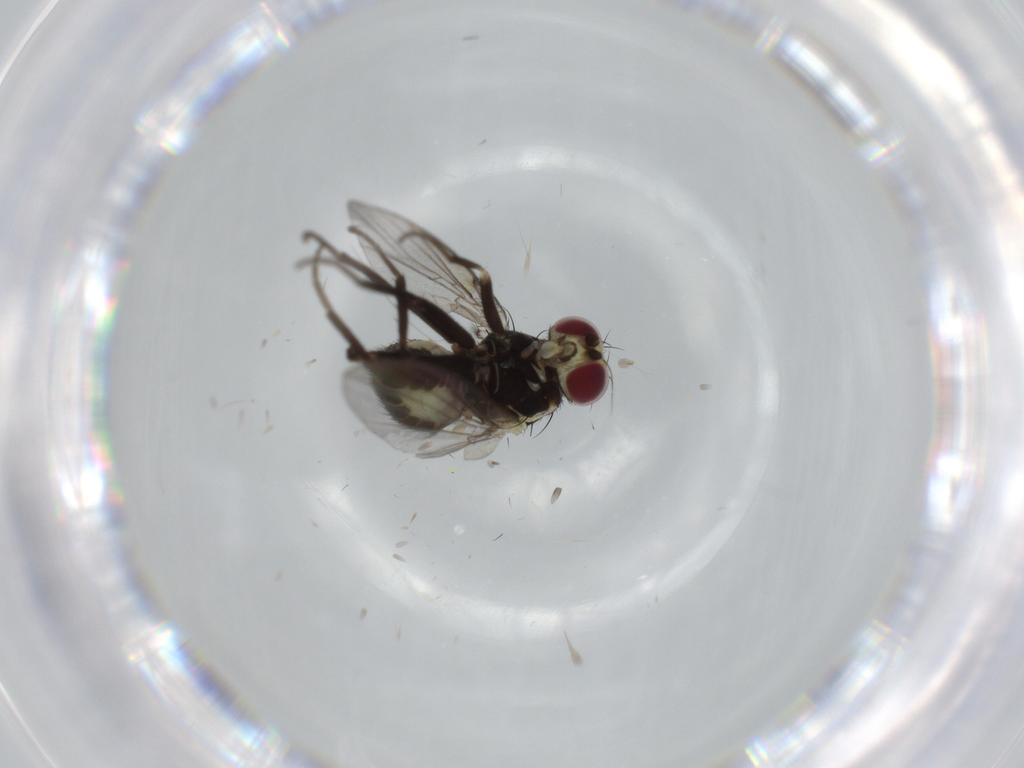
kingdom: Animalia
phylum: Arthropoda
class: Insecta
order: Diptera
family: Agromyzidae
